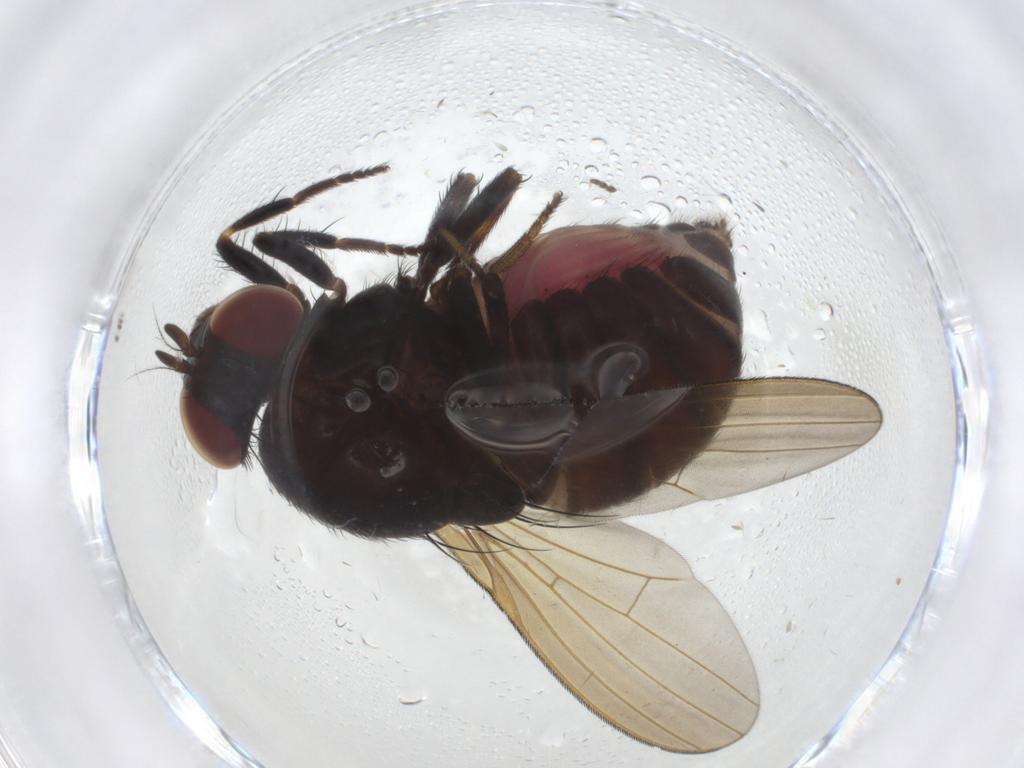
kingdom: Animalia
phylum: Arthropoda
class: Insecta
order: Diptera
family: Lauxaniidae
